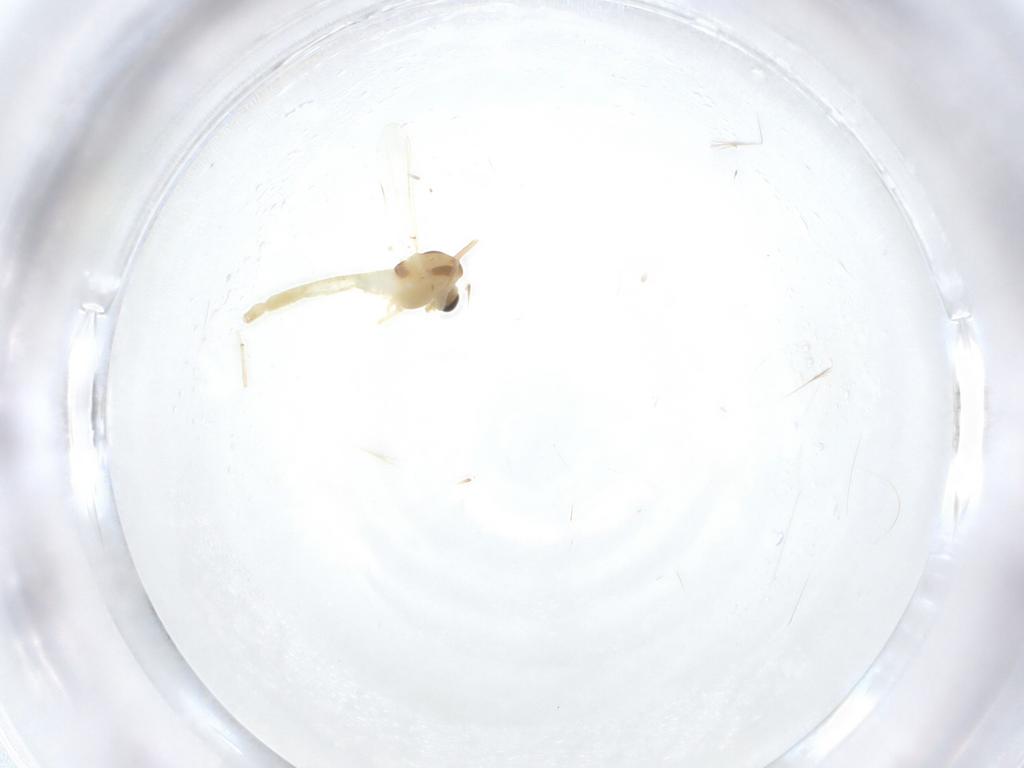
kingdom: Animalia
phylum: Arthropoda
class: Insecta
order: Diptera
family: Chironomidae
